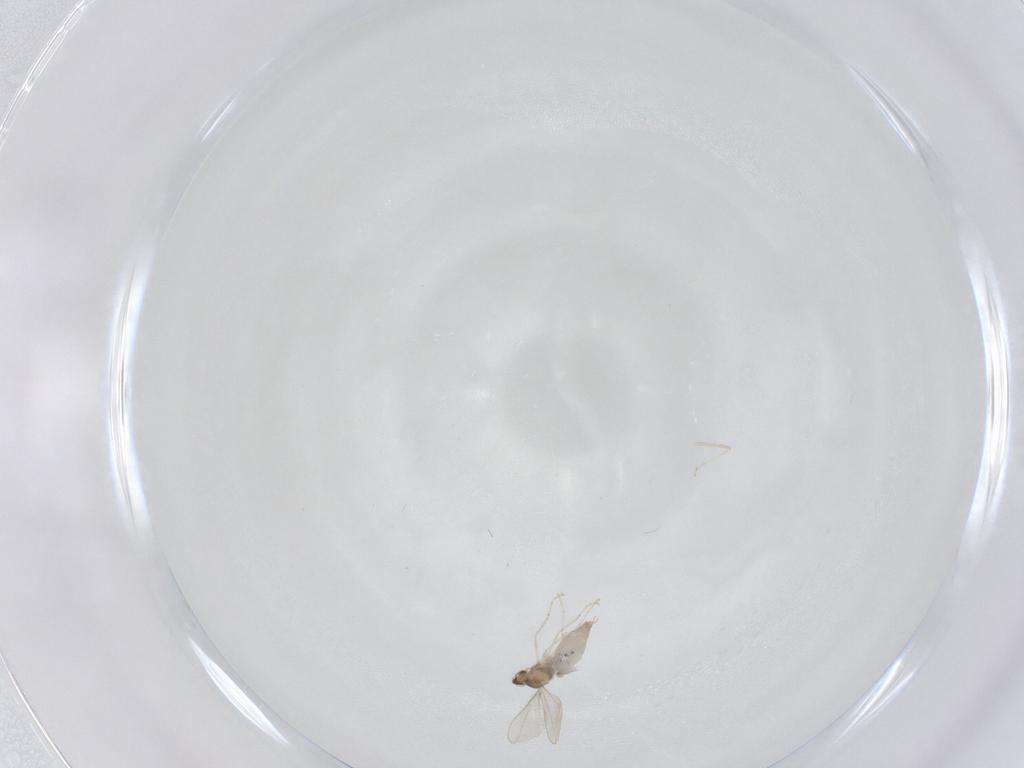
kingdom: Animalia
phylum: Arthropoda
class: Insecta
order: Diptera
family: Cecidomyiidae
